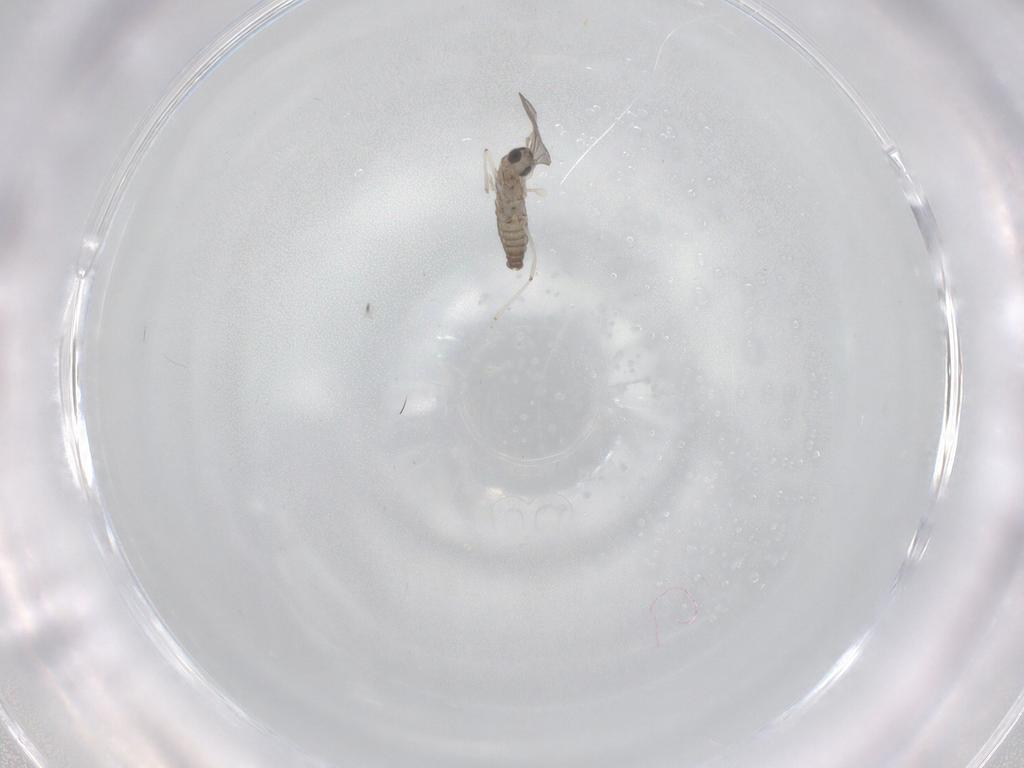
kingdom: Animalia
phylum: Arthropoda
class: Insecta
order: Diptera
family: Cecidomyiidae
